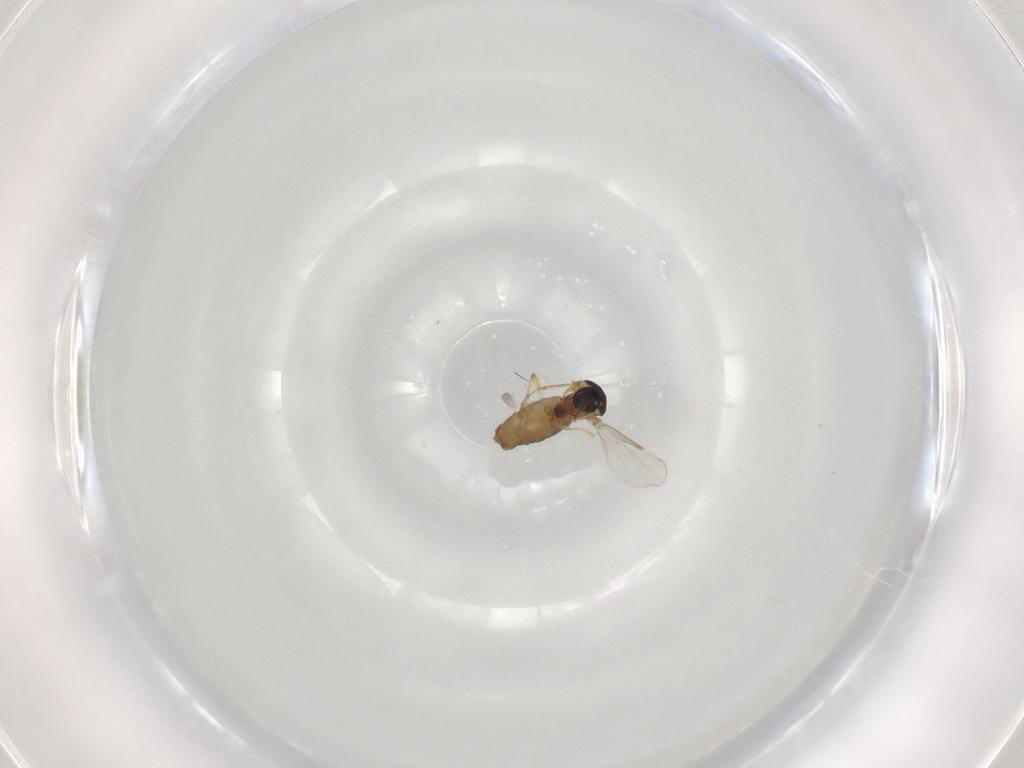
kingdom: Animalia
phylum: Arthropoda
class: Insecta
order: Diptera
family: Ceratopogonidae
